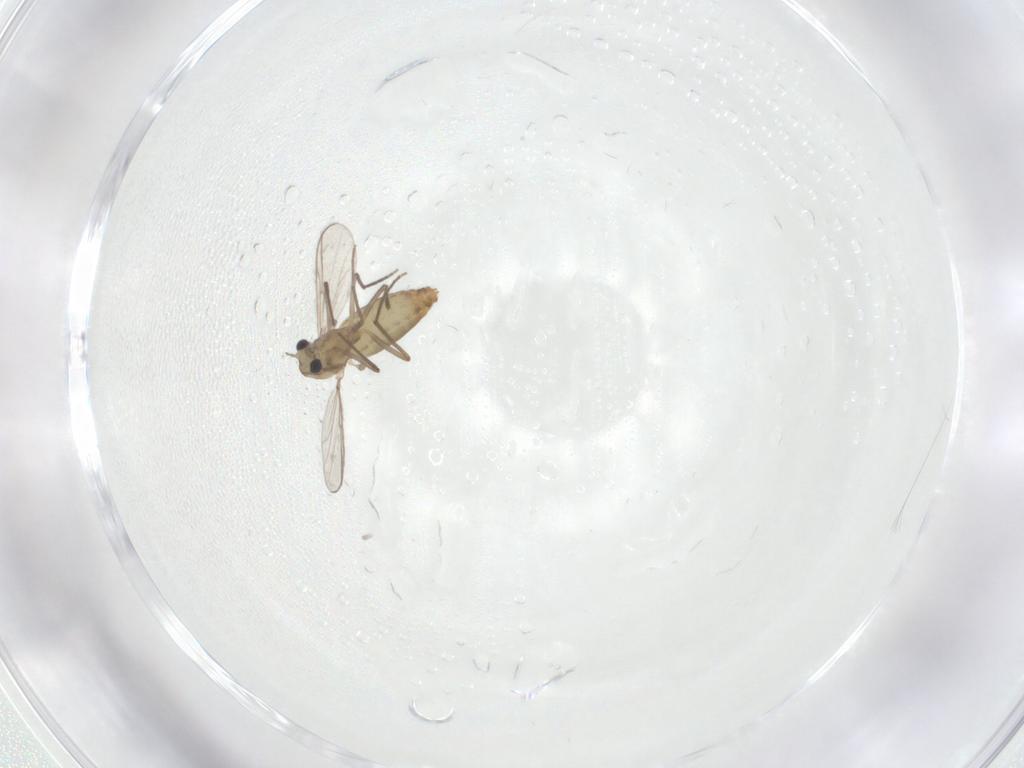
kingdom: Animalia
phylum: Arthropoda
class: Insecta
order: Diptera
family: Chironomidae
